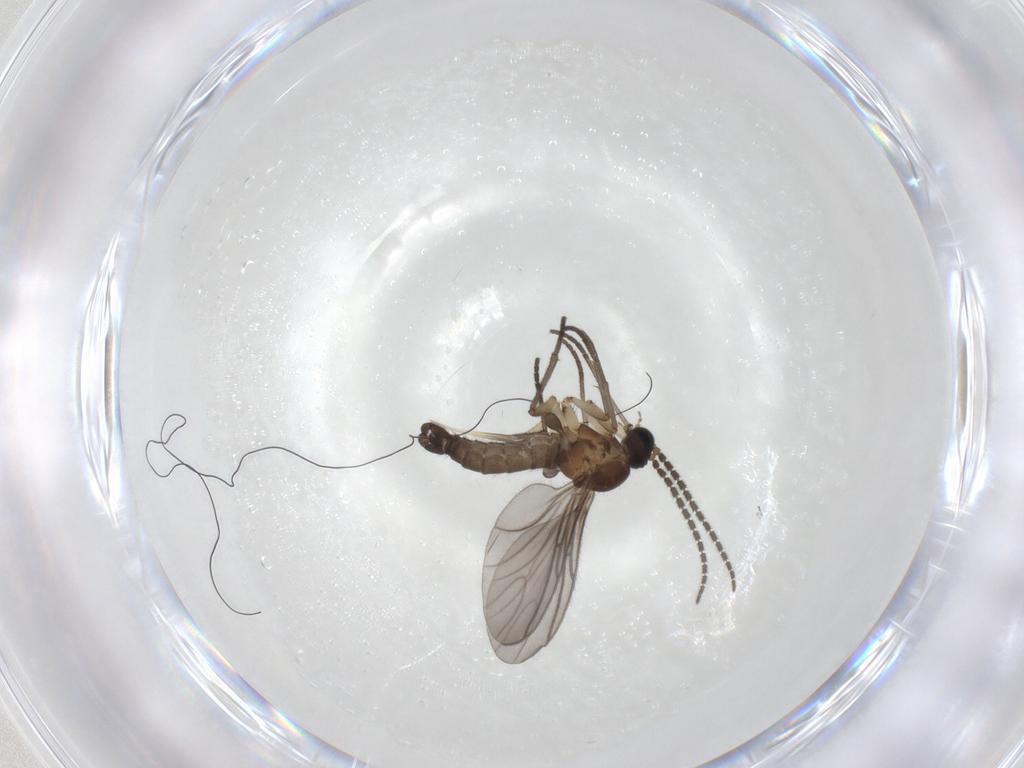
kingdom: Animalia
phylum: Arthropoda
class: Insecta
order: Diptera
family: Sciaridae
